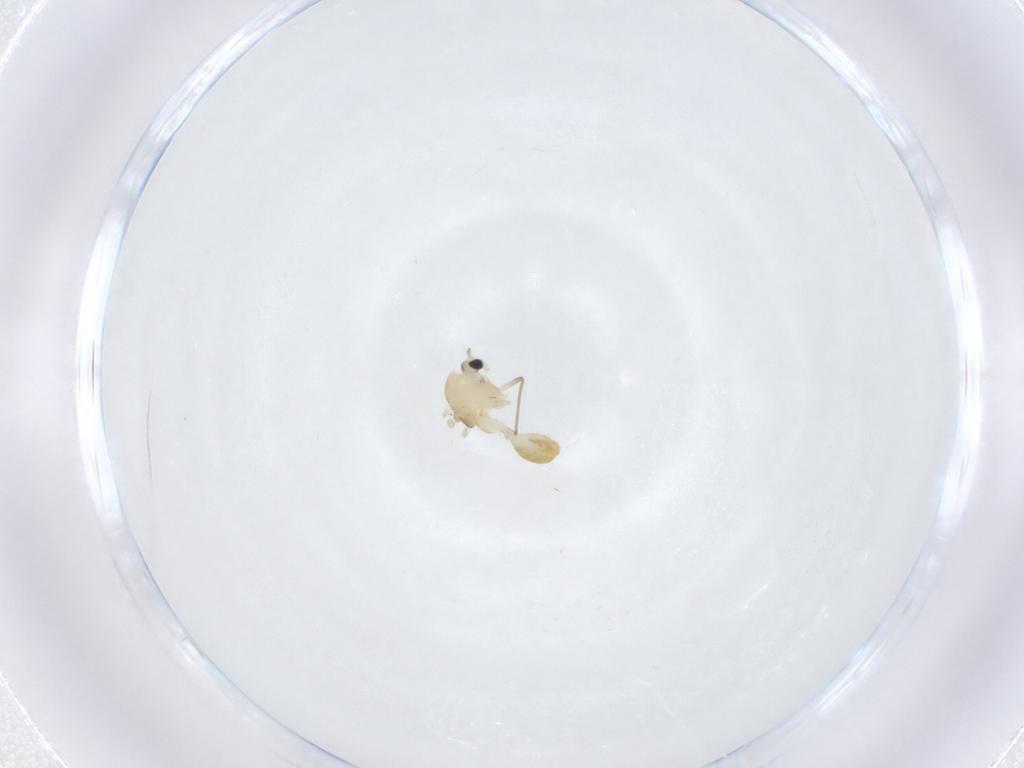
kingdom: Animalia
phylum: Arthropoda
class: Insecta
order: Diptera
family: Chironomidae
